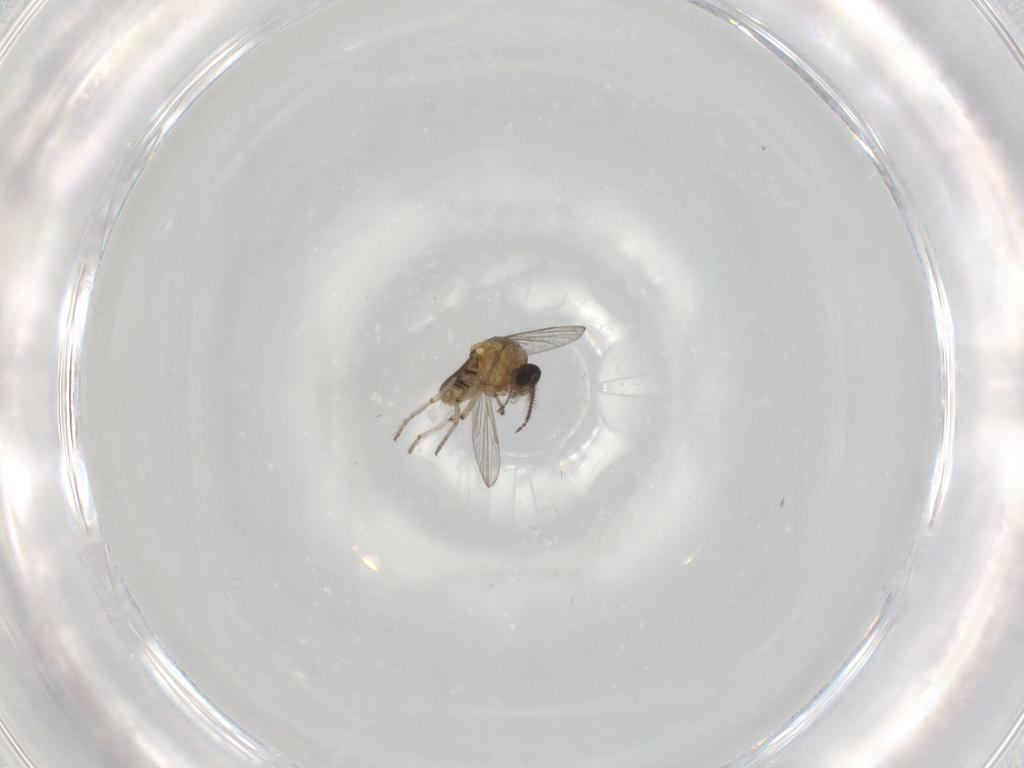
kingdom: Animalia
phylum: Arthropoda
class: Insecta
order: Diptera
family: Ceratopogonidae
